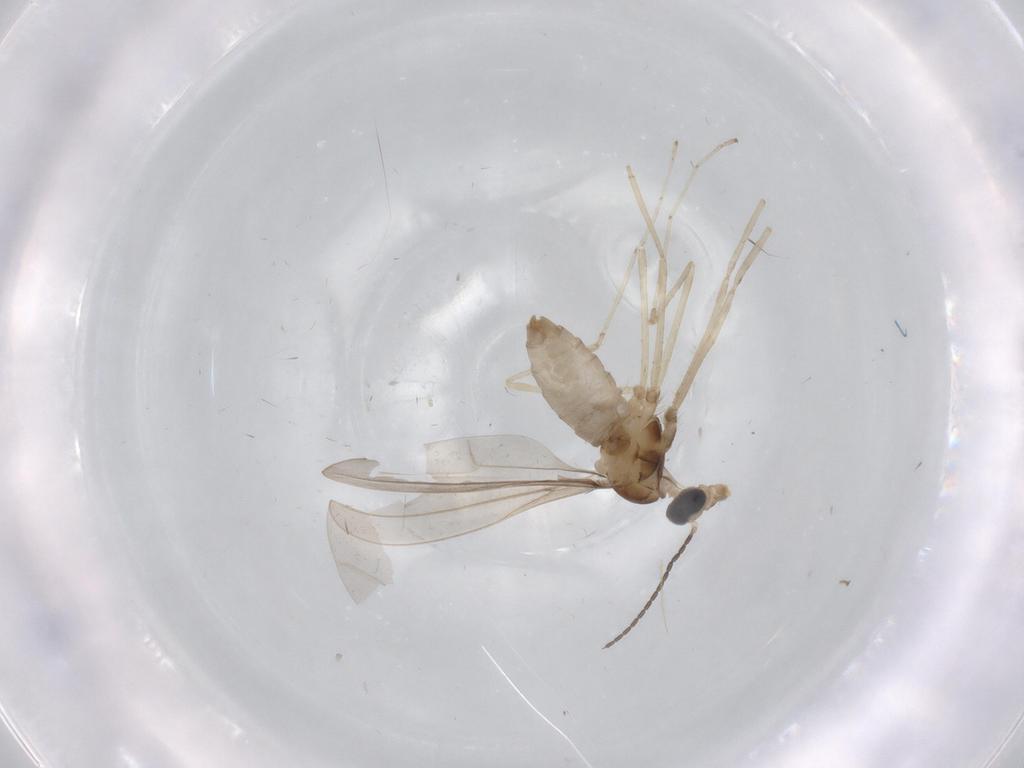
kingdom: Animalia
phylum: Arthropoda
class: Insecta
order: Diptera
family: Cecidomyiidae
